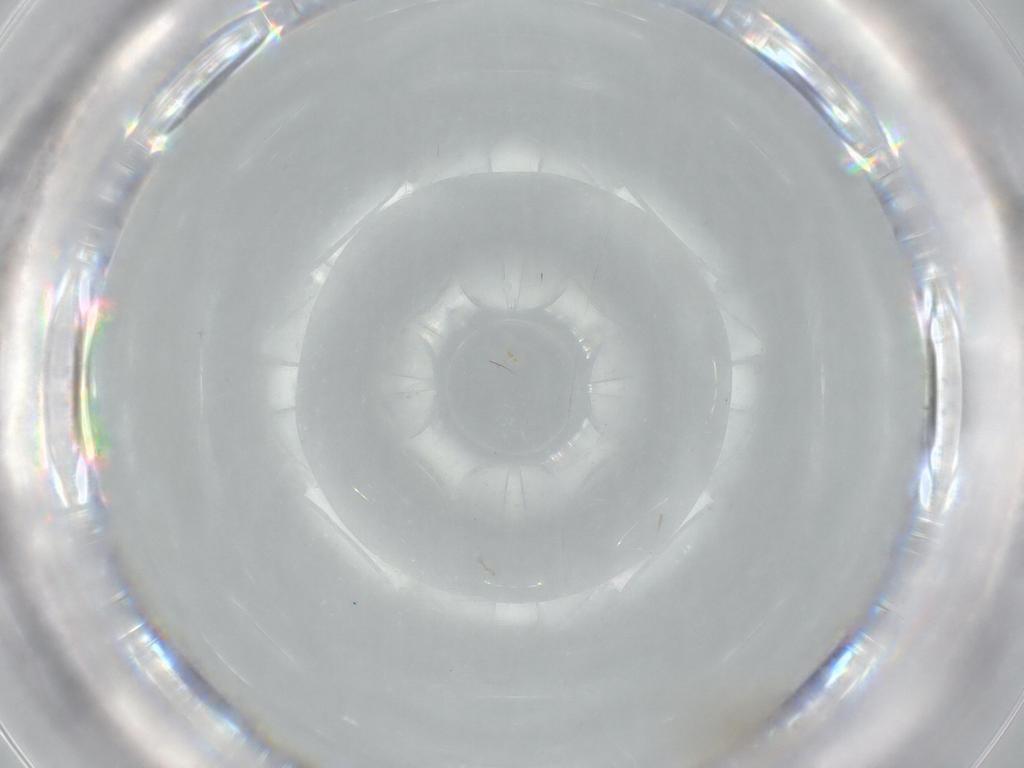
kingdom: Animalia
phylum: Arthropoda
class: Insecta
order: Diptera
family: Cecidomyiidae
